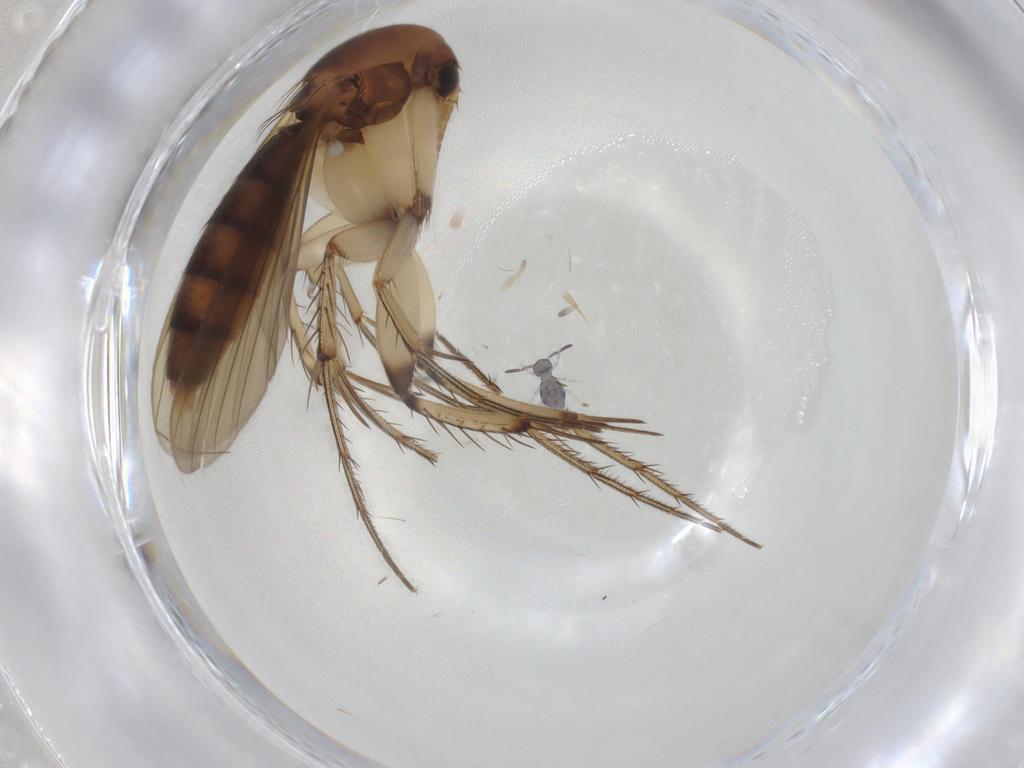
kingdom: Animalia
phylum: Arthropoda
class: Insecta
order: Diptera
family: Mycetophilidae
